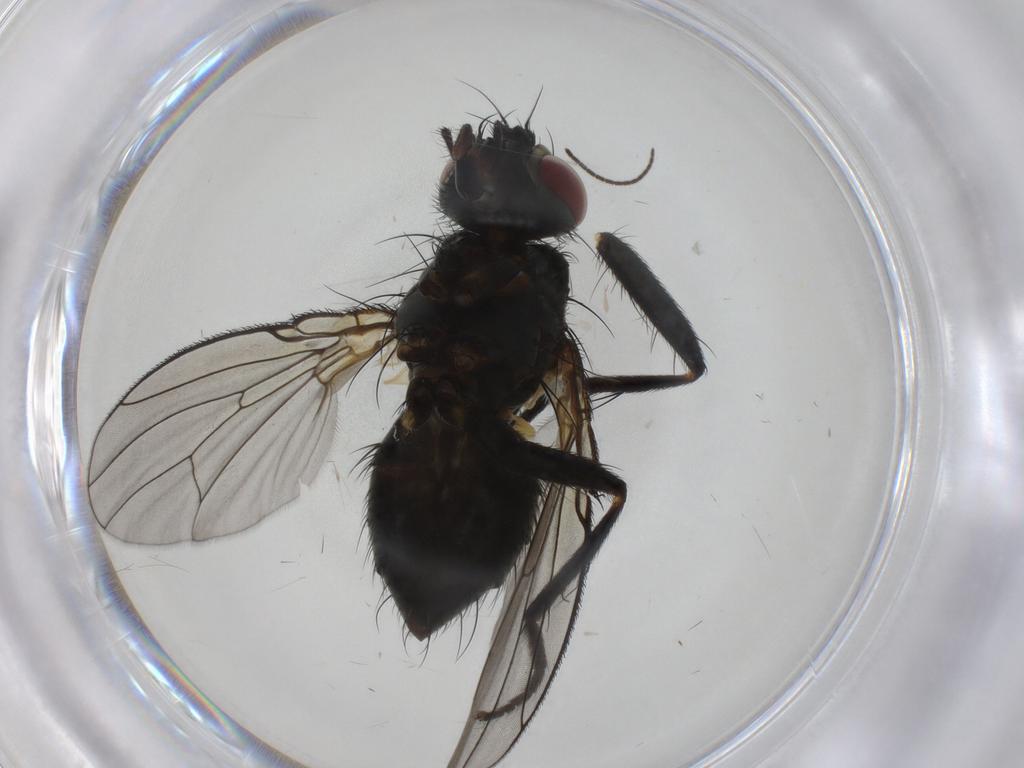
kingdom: Animalia
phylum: Arthropoda
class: Insecta
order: Diptera
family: Muscidae
